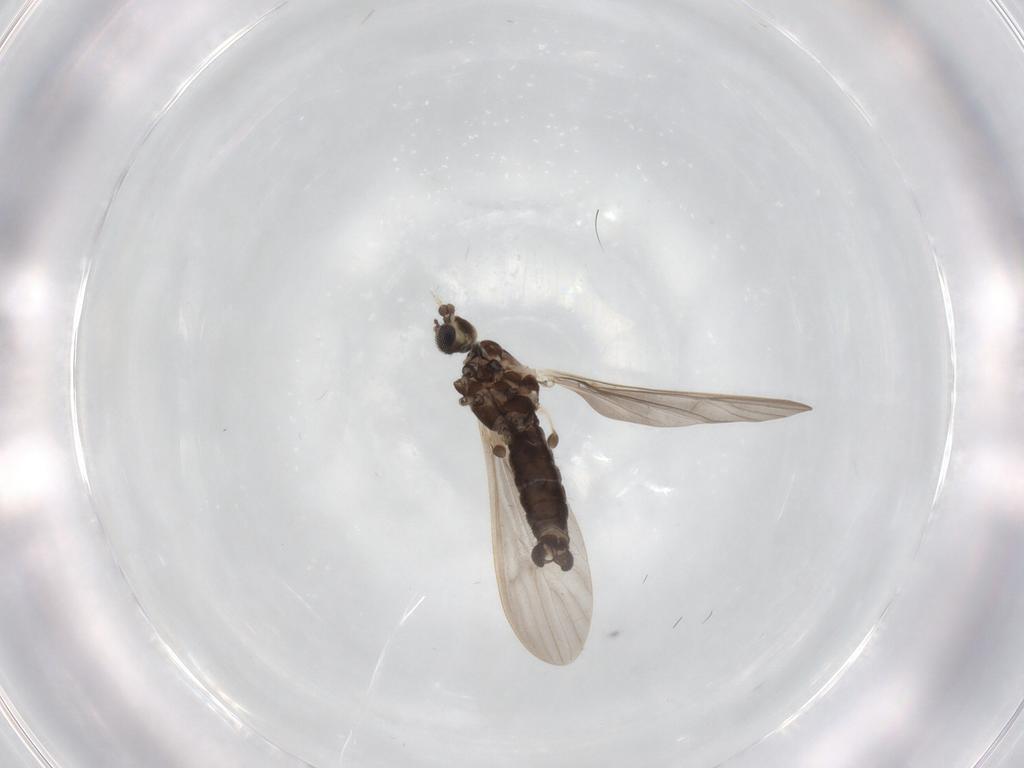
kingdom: Animalia
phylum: Arthropoda
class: Insecta
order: Diptera
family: Limoniidae
